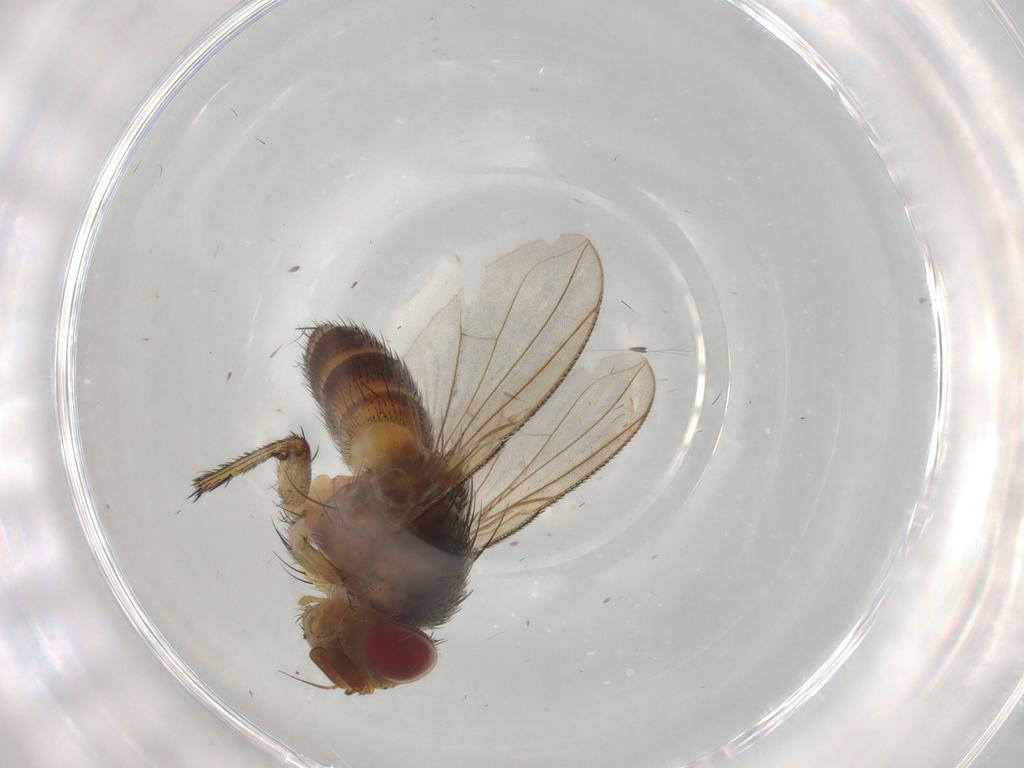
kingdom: Animalia
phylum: Arthropoda
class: Insecta
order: Diptera
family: Tachinidae
